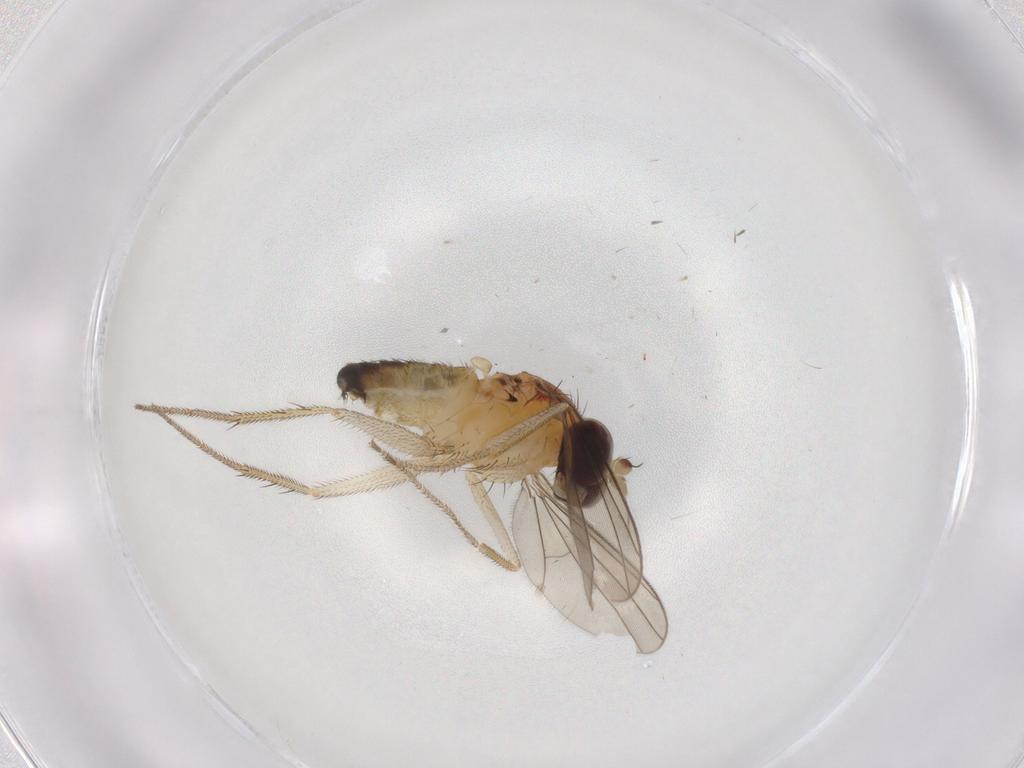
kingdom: Animalia
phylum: Arthropoda
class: Insecta
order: Diptera
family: Dolichopodidae
